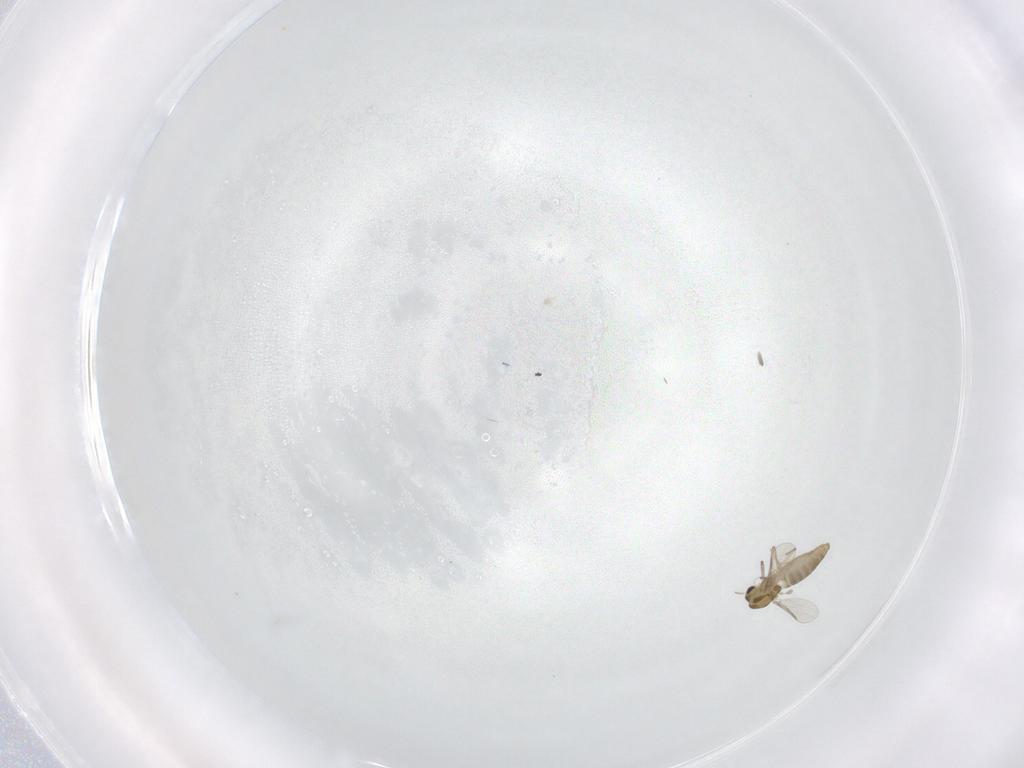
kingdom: Animalia
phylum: Arthropoda
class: Insecta
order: Diptera
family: Chironomidae
